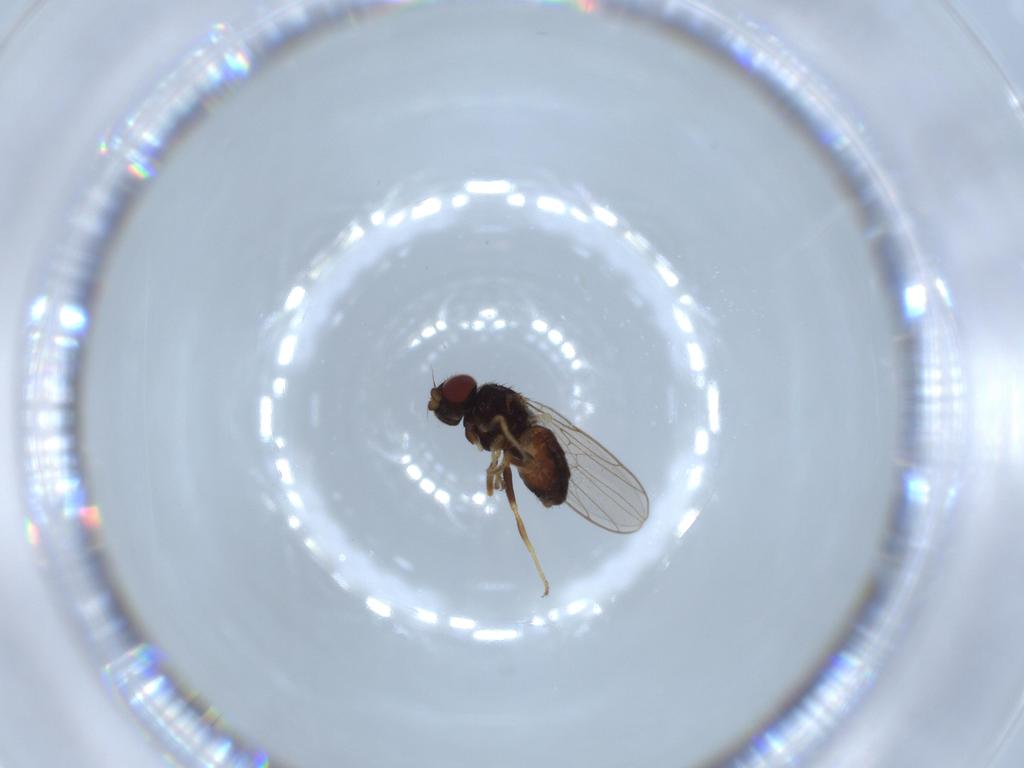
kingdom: Animalia
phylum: Arthropoda
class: Insecta
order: Diptera
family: Chloropidae
